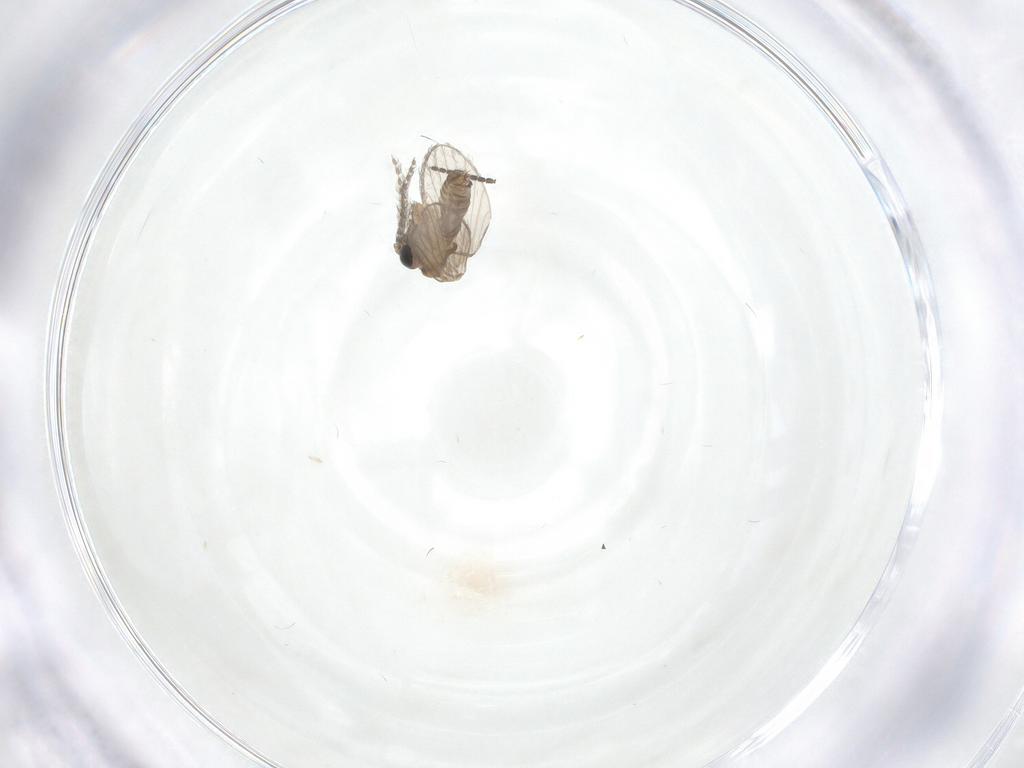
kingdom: Animalia
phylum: Arthropoda
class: Insecta
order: Diptera
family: Psychodidae
